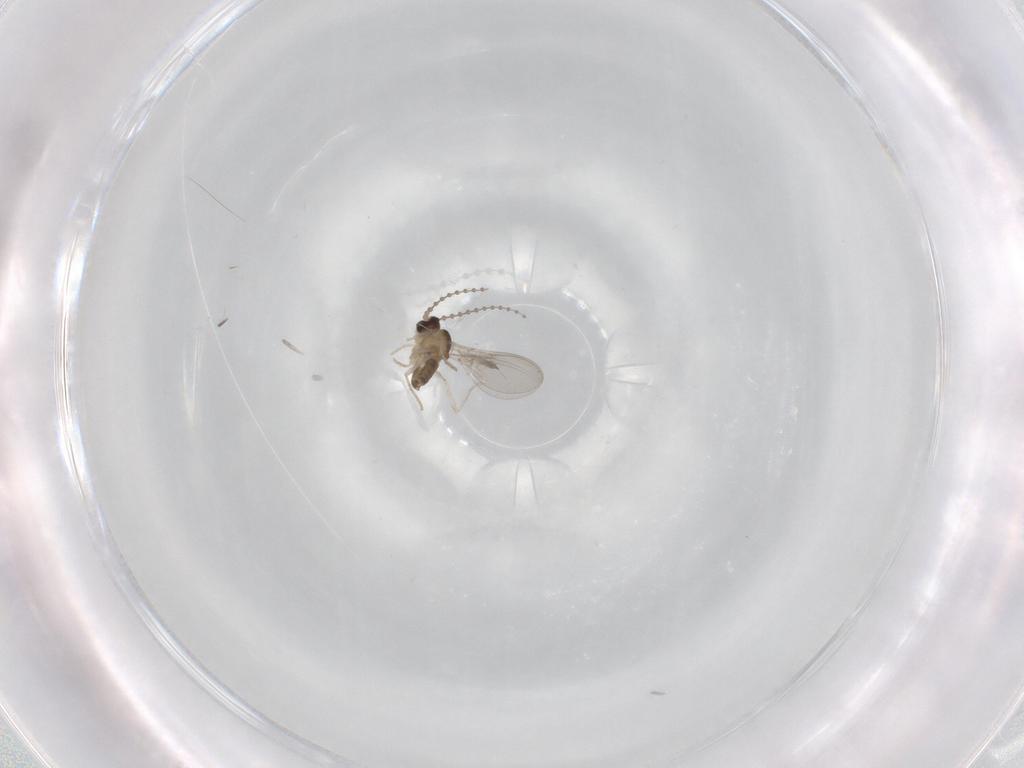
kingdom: Animalia
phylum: Arthropoda
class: Insecta
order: Diptera
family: Cecidomyiidae
